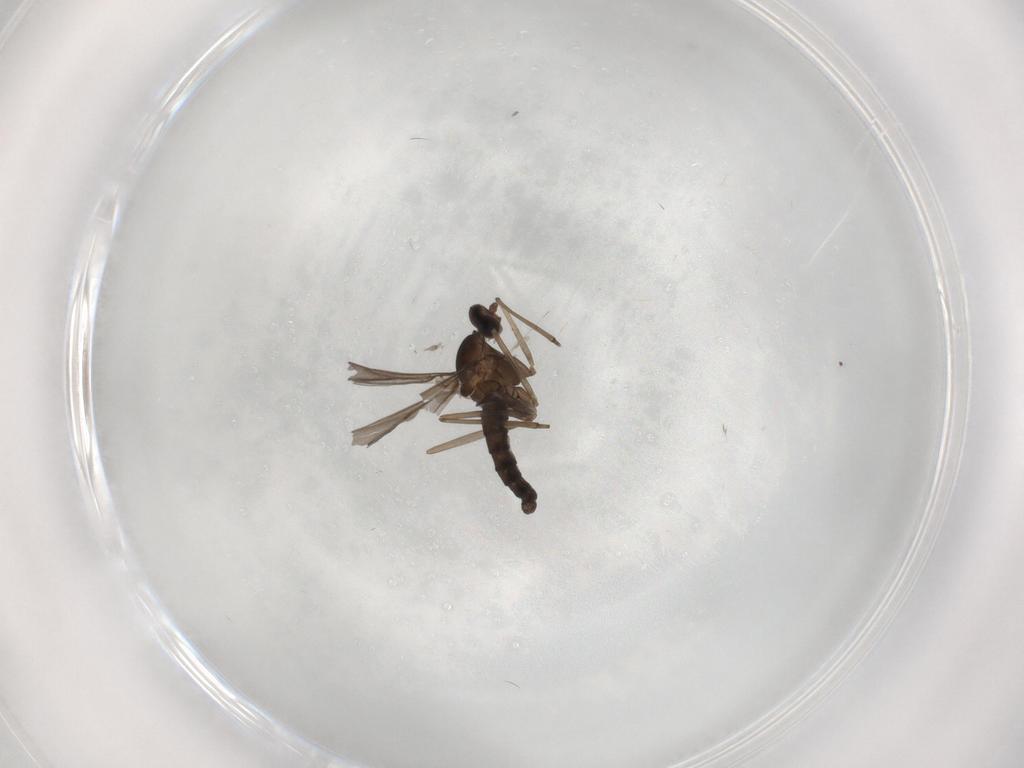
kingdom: Animalia
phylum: Arthropoda
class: Insecta
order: Diptera
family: Cecidomyiidae
